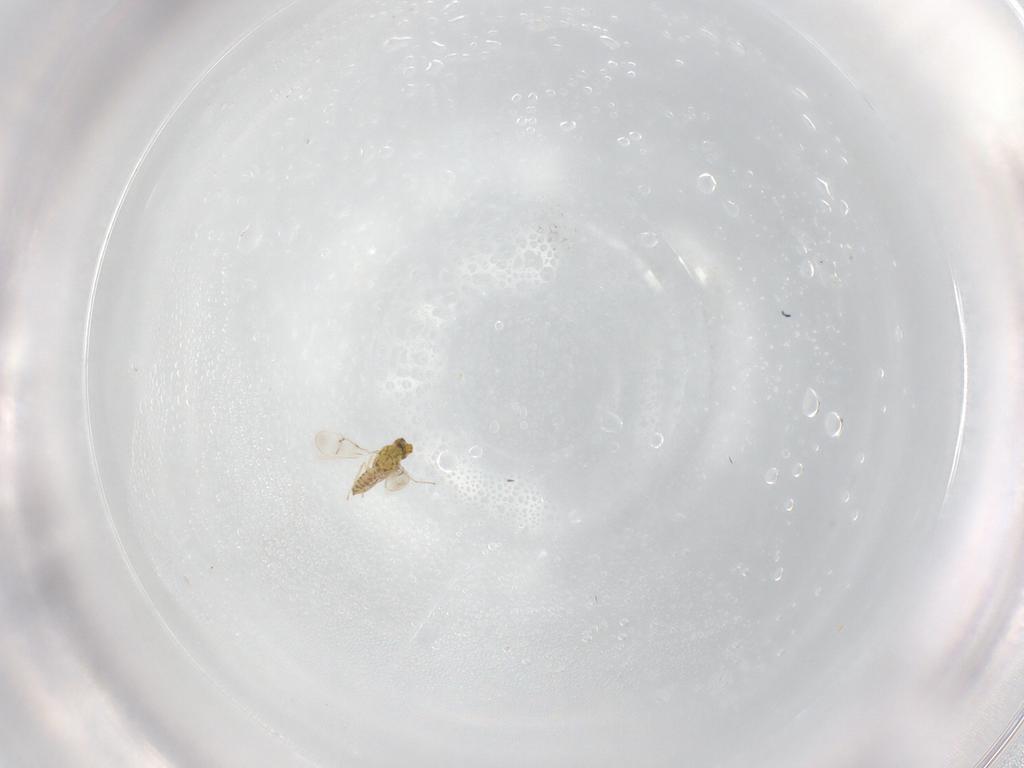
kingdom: Animalia
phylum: Arthropoda
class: Insecta
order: Hymenoptera
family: Eulophidae
